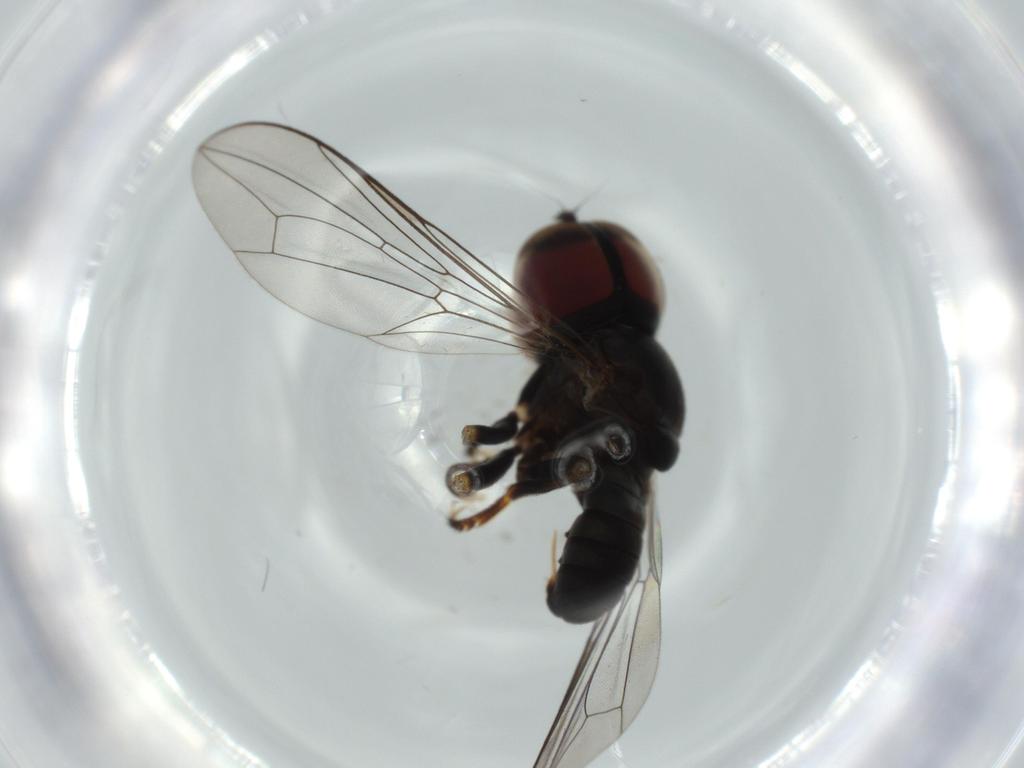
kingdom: Animalia
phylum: Arthropoda
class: Insecta
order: Diptera
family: Pipunculidae
